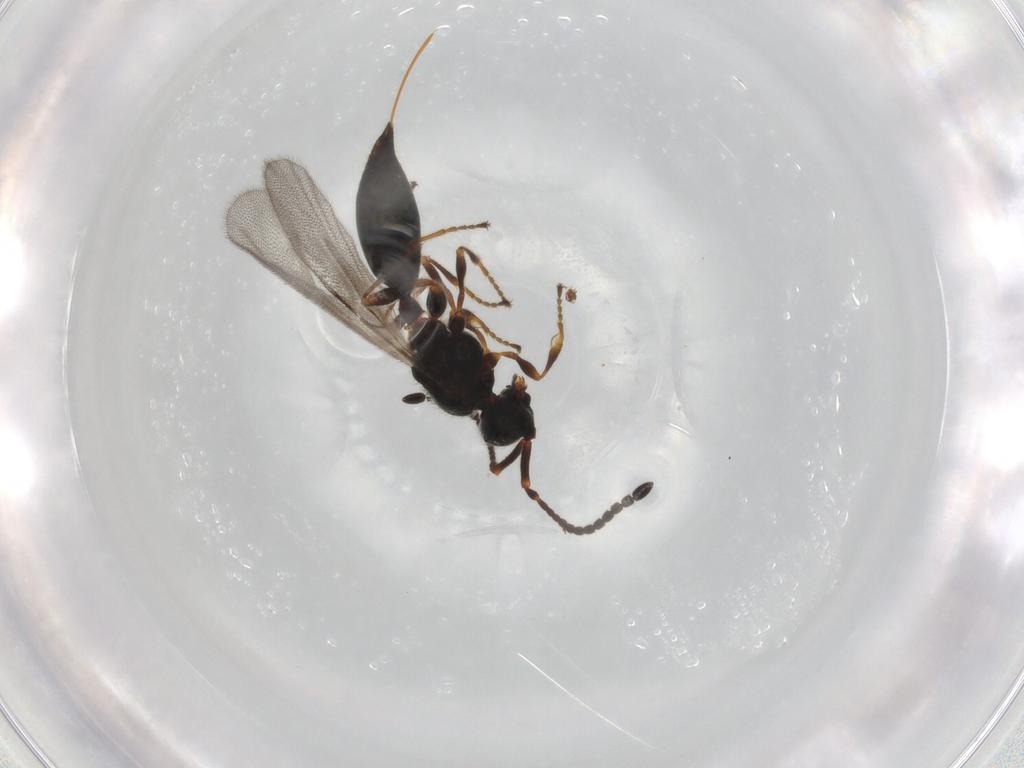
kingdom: Animalia
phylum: Arthropoda
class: Insecta
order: Hymenoptera
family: Diapriidae
